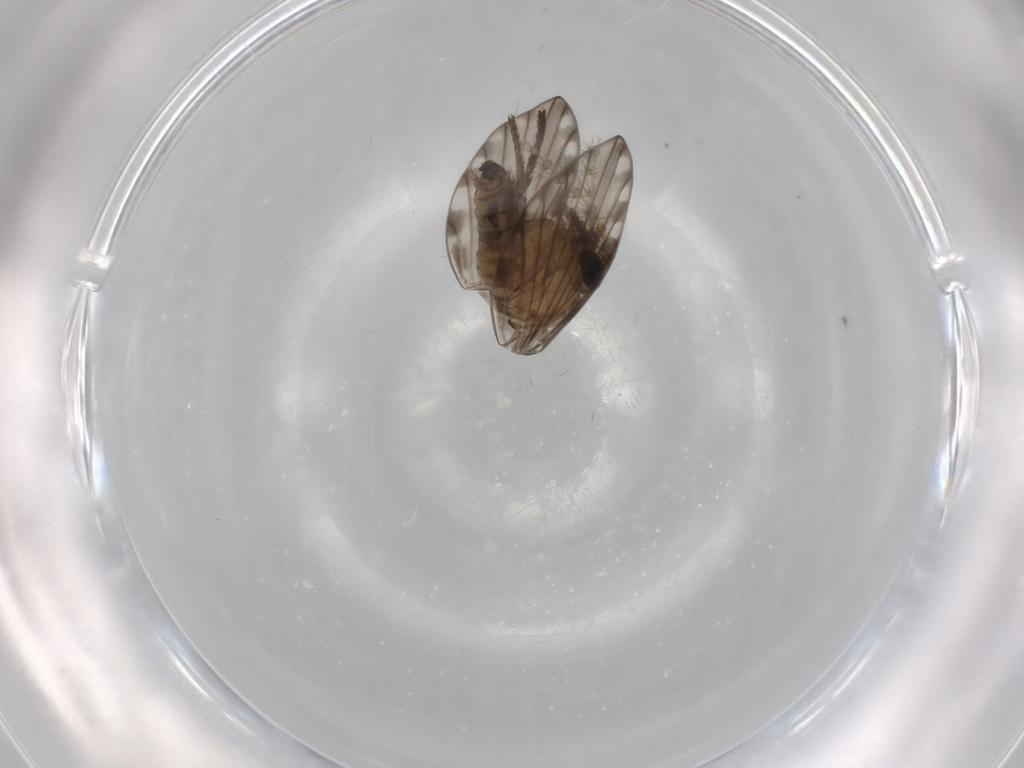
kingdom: Animalia
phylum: Arthropoda
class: Insecta
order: Diptera
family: Chironomidae
